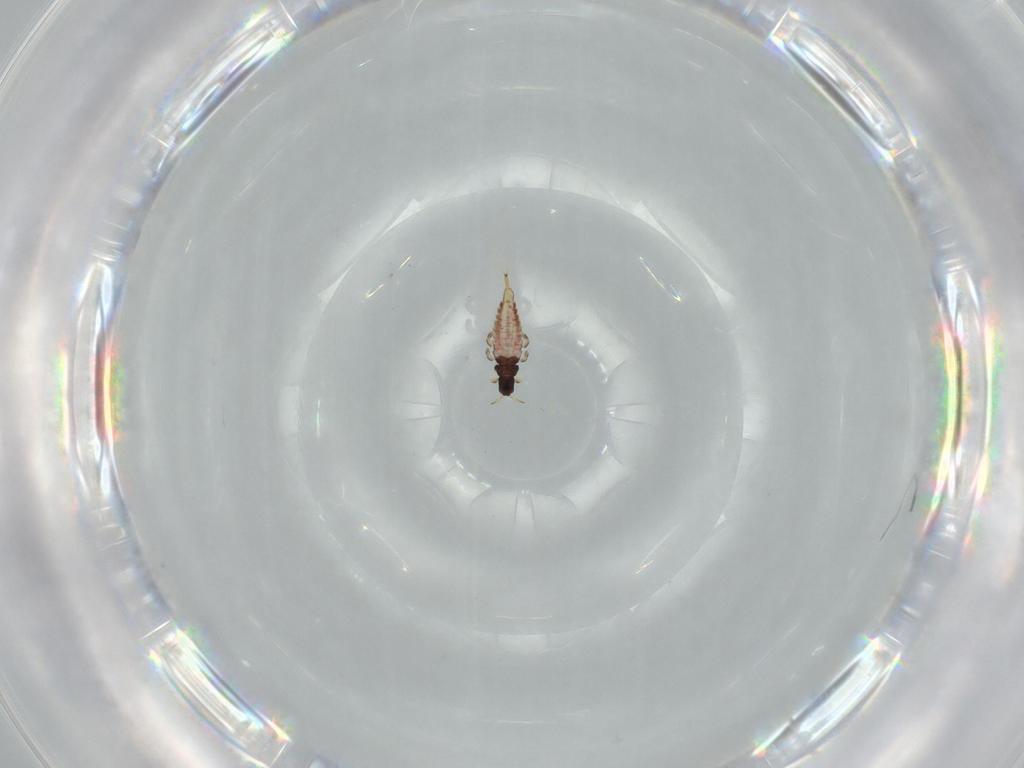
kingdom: Animalia
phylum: Arthropoda
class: Insecta
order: Thysanoptera
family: Phlaeothripidae
